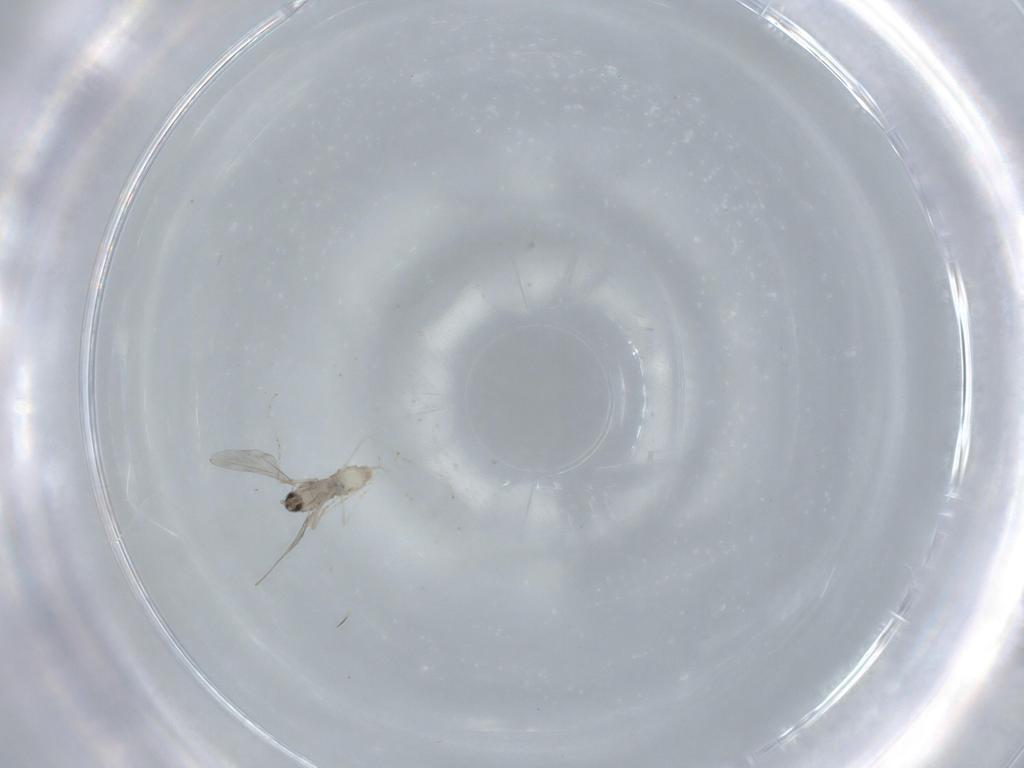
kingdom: Animalia
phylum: Arthropoda
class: Insecta
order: Diptera
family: Cecidomyiidae
